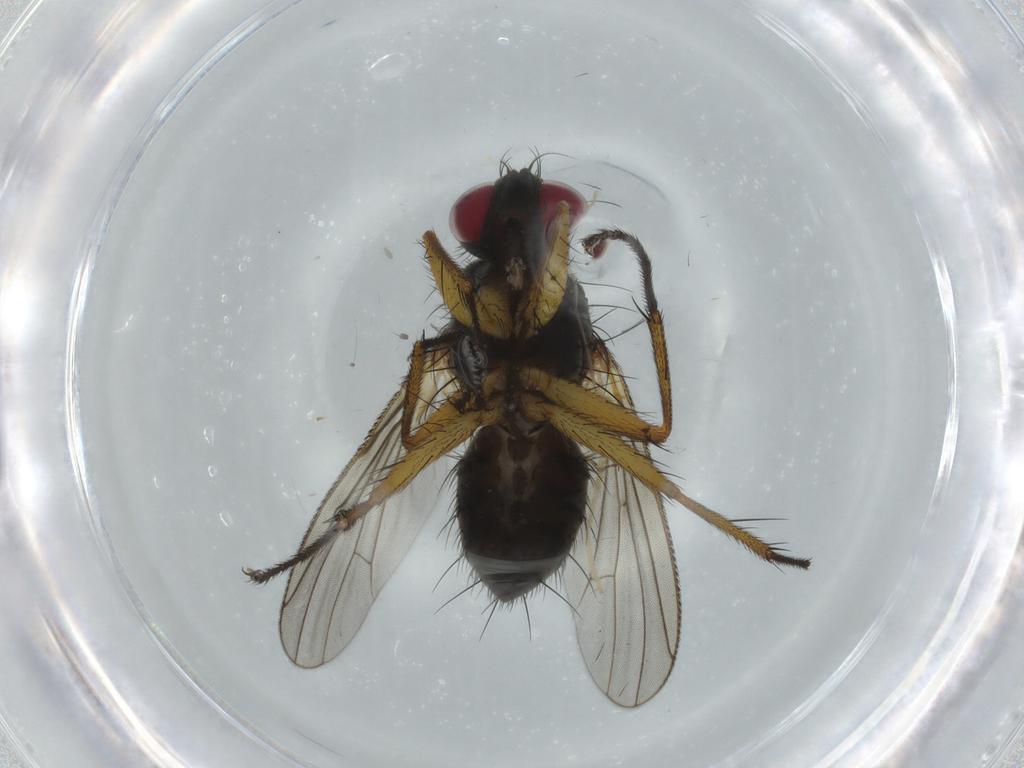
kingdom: Animalia
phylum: Arthropoda
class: Insecta
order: Diptera
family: Muscidae
